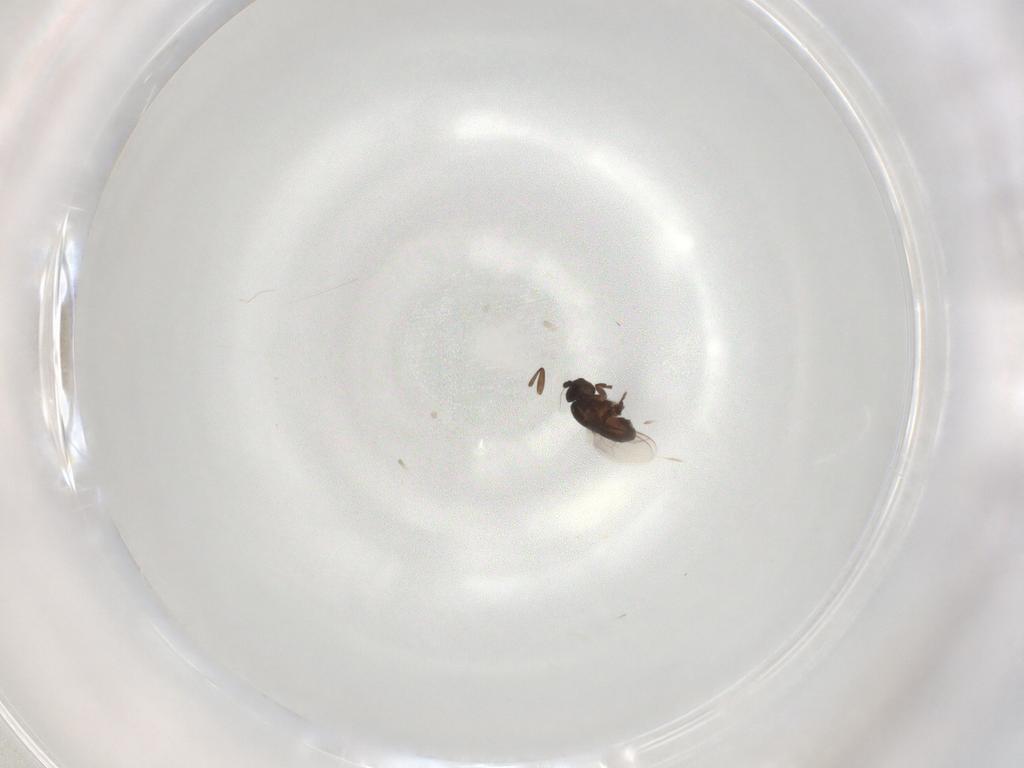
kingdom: Animalia
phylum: Arthropoda
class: Insecta
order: Diptera
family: Sphaeroceridae
